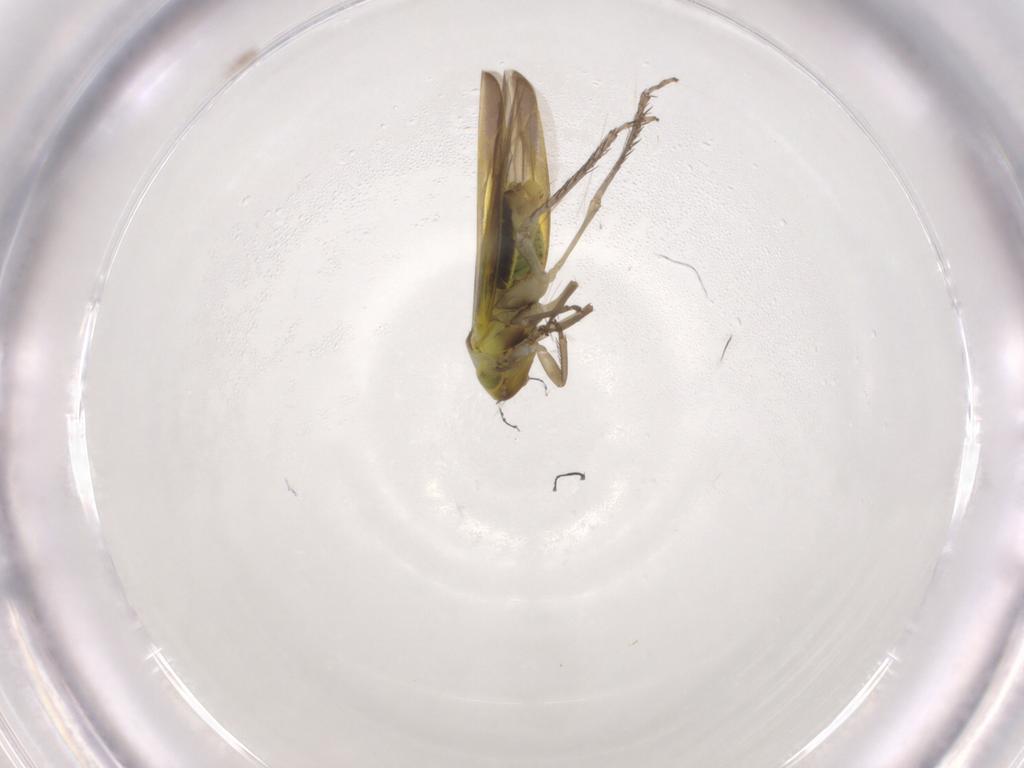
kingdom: Animalia
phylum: Arthropoda
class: Insecta
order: Hemiptera
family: Cicadellidae
